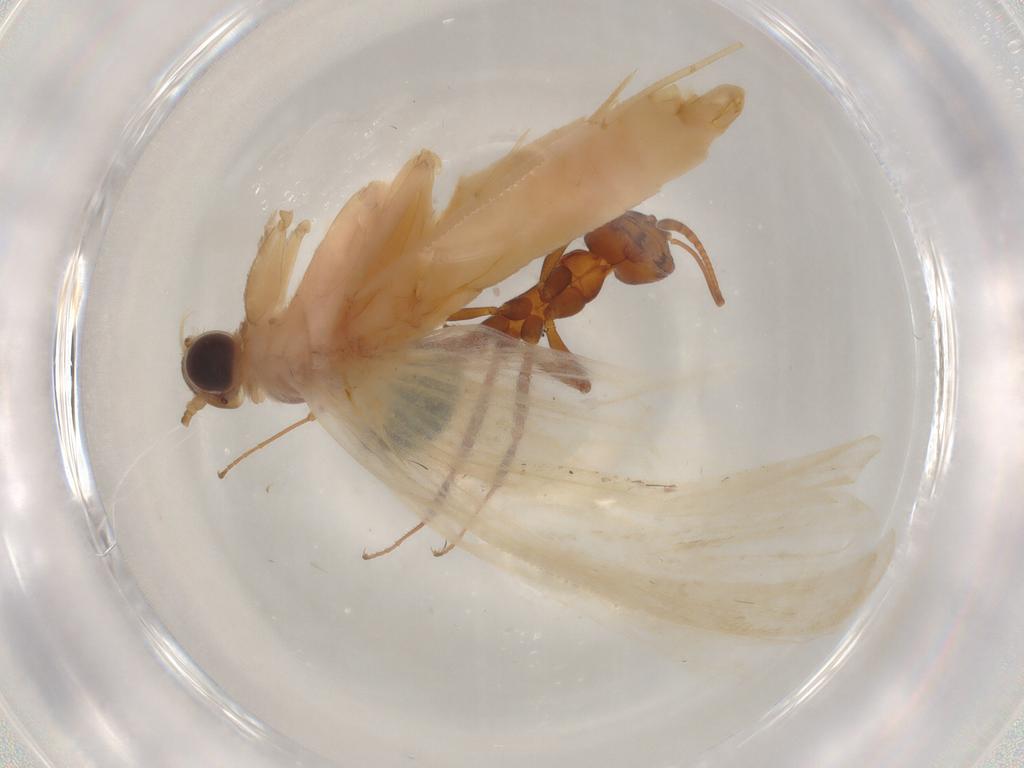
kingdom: Animalia
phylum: Arthropoda
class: Insecta
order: Lepidoptera
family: Gelechiidae
